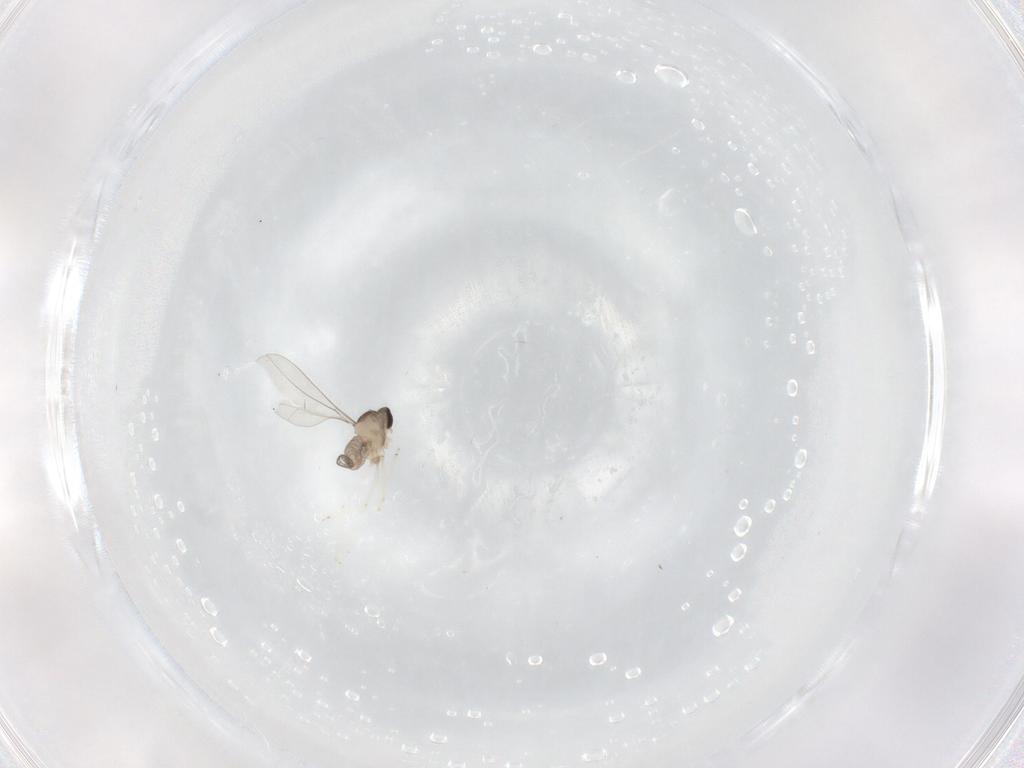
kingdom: Animalia
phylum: Arthropoda
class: Insecta
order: Diptera
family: Cecidomyiidae
